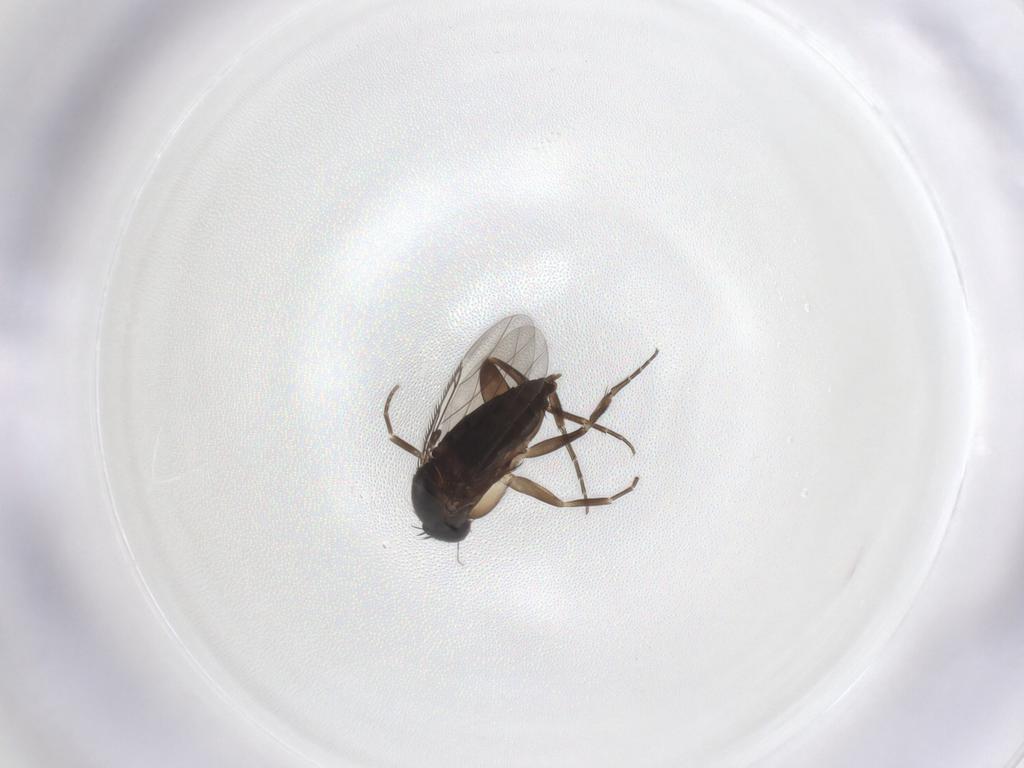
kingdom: Animalia
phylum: Arthropoda
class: Insecta
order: Diptera
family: Phoridae
